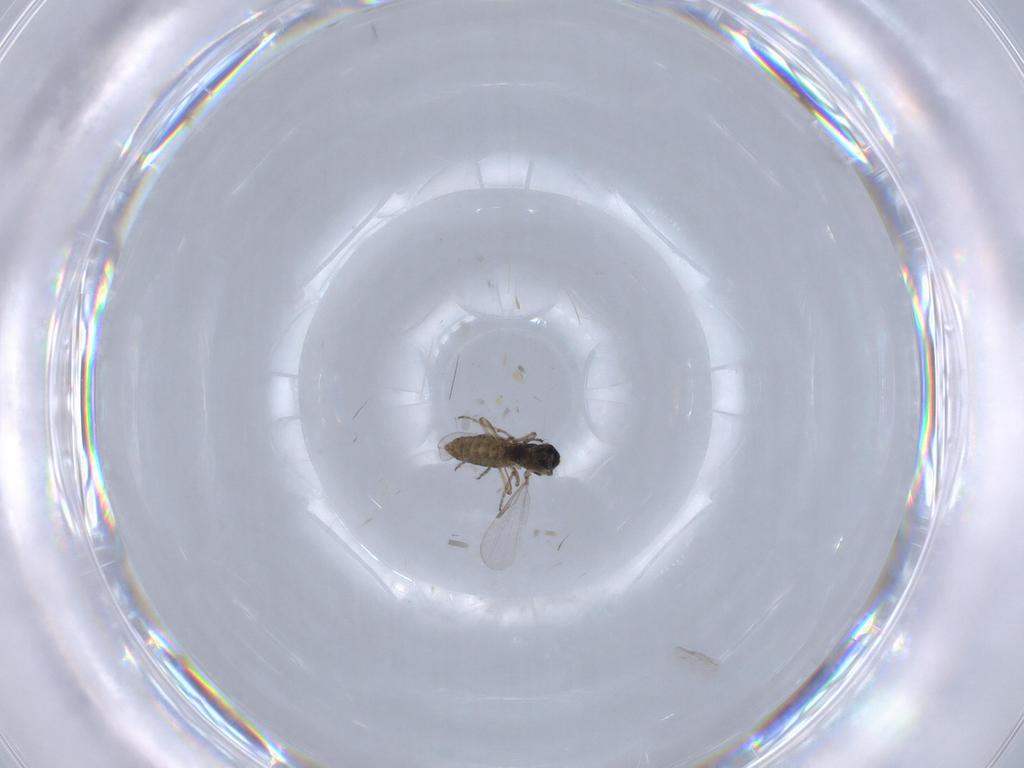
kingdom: Animalia
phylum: Arthropoda
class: Insecta
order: Diptera
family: Ceratopogonidae
